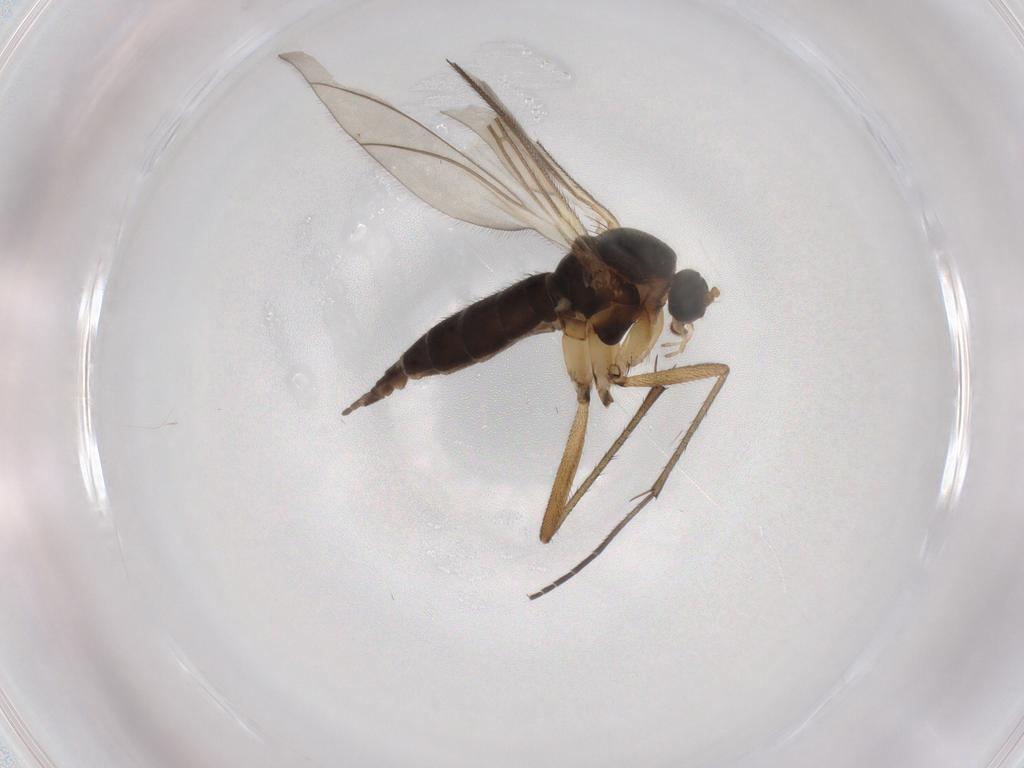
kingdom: Animalia
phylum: Arthropoda
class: Insecta
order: Diptera
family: Sciaridae
